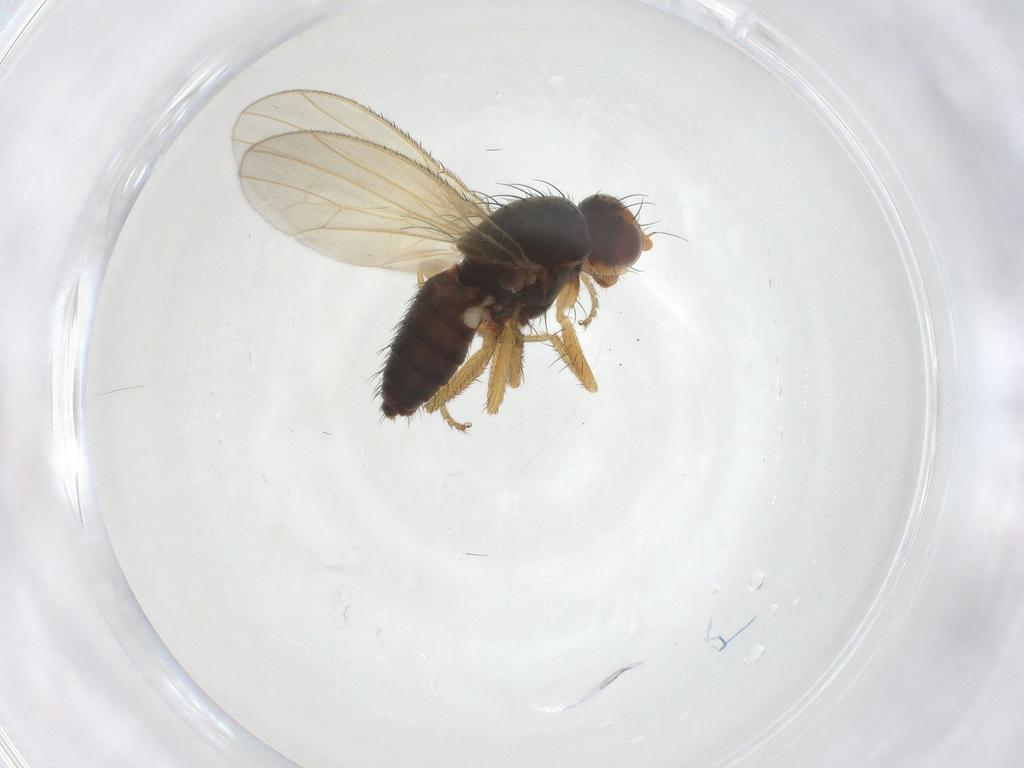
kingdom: Animalia
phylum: Arthropoda
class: Insecta
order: Diptera
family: Heleomyzidae
